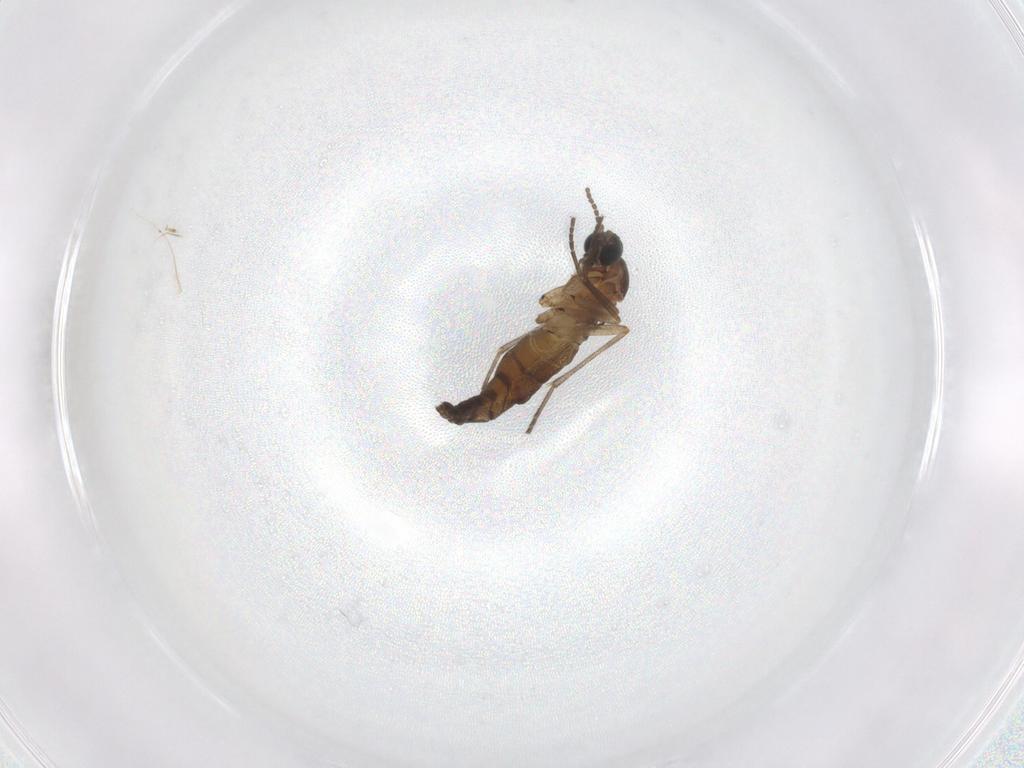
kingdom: Animalia
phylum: Arthropoda
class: Insecta
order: Diptera
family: Sciaridae
